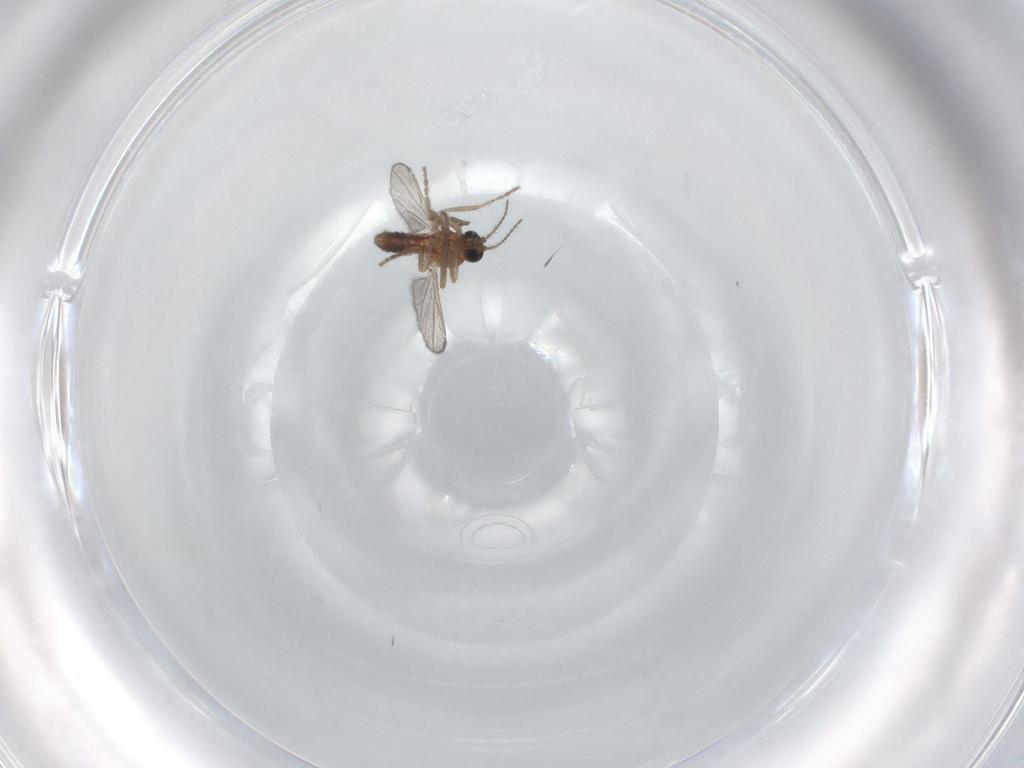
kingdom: Animalia
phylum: Arthropoda
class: Insecta
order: Diptera
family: Ceratopogonidae
